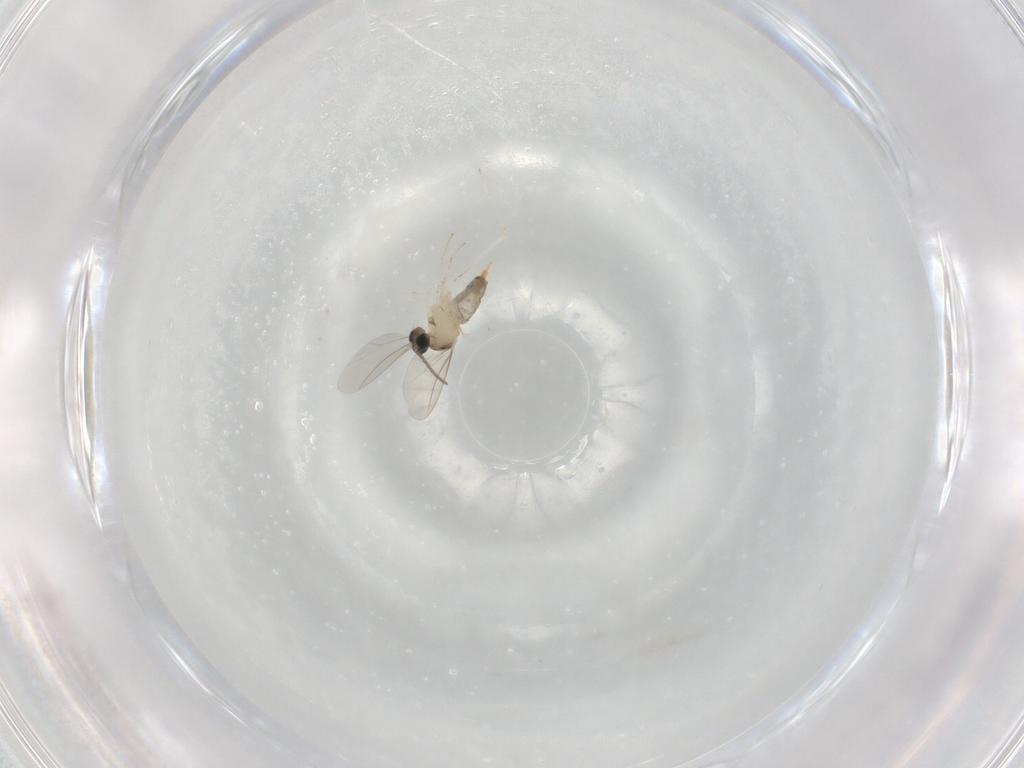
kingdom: Animalia
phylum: Arthropoda
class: Insecta
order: Diptera
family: Cecidomyiidae
